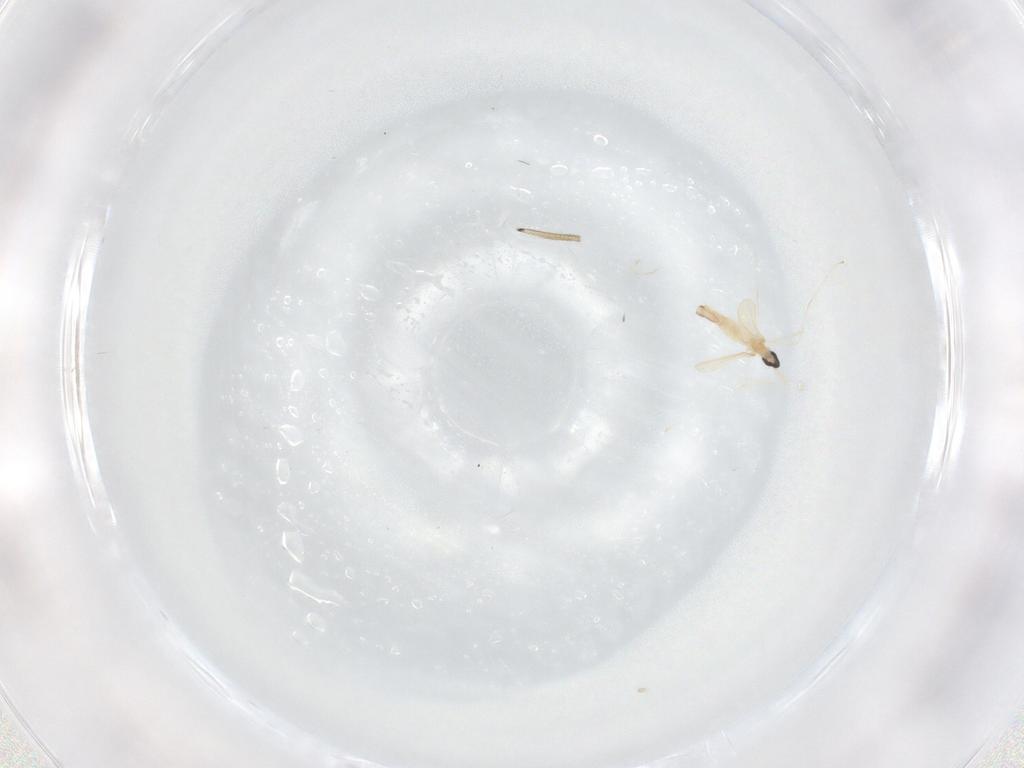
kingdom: Animalia
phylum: Arthropoda
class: Insecta
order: Diptera
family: Cecidomyiidae
